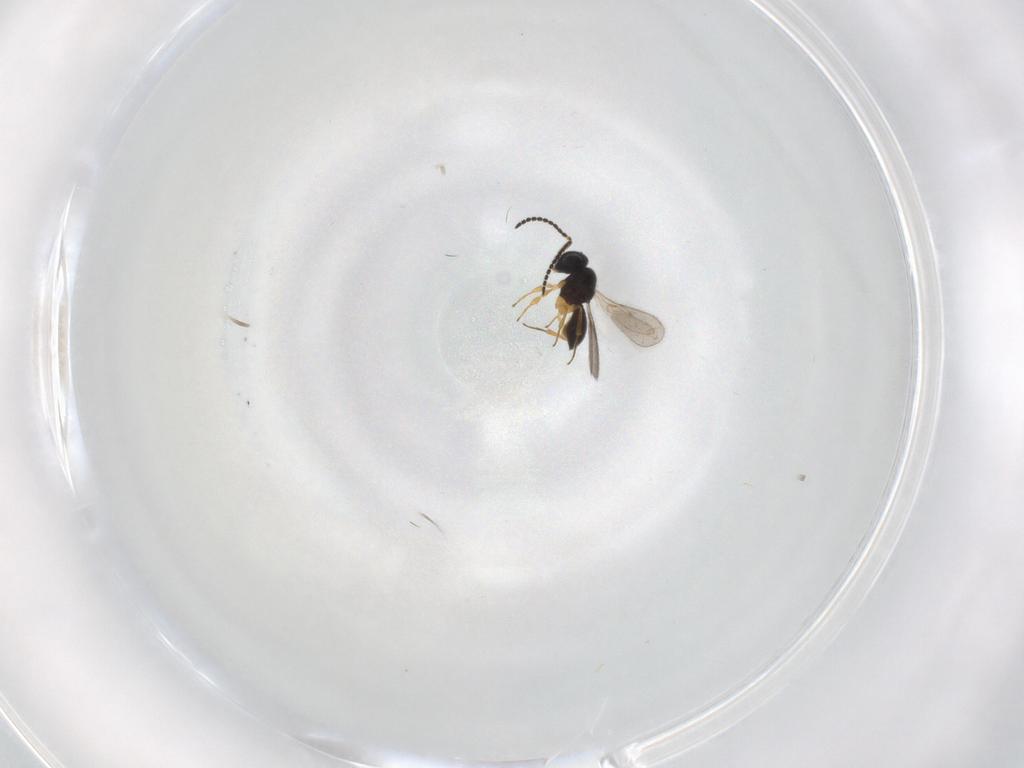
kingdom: Animalia
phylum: Arthropoda
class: Insecta
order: Hymenoptera
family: Scelionidae
